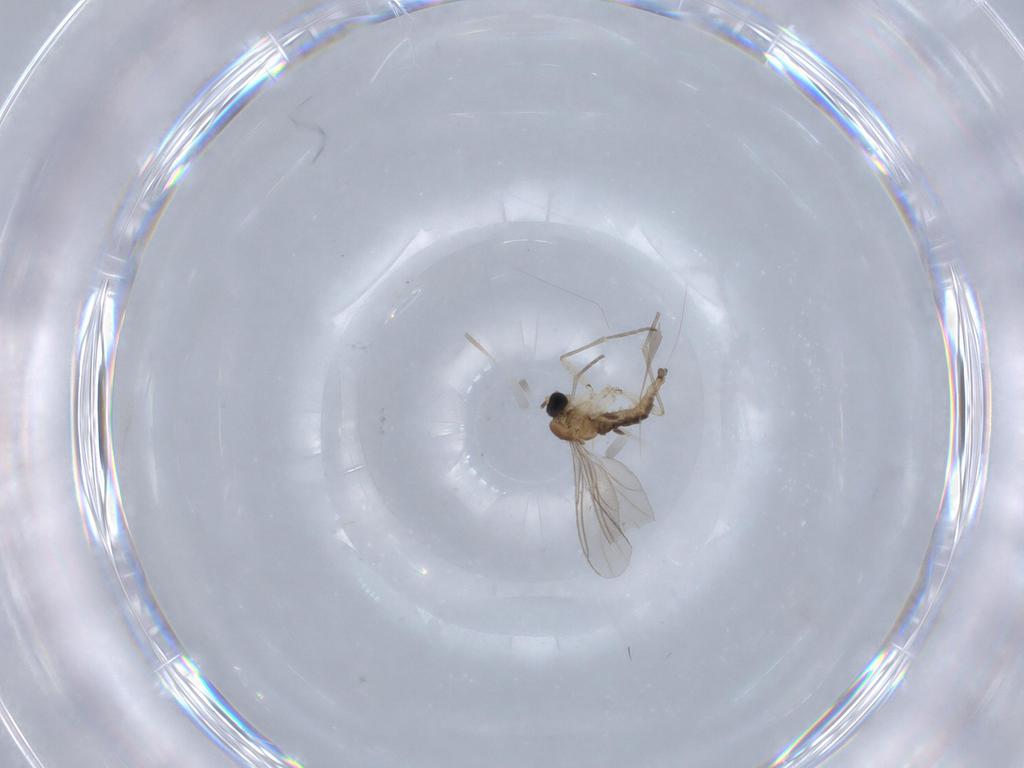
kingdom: Animalia
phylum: Arthropoda
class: Insecta
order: Diptera
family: Sciaridae
